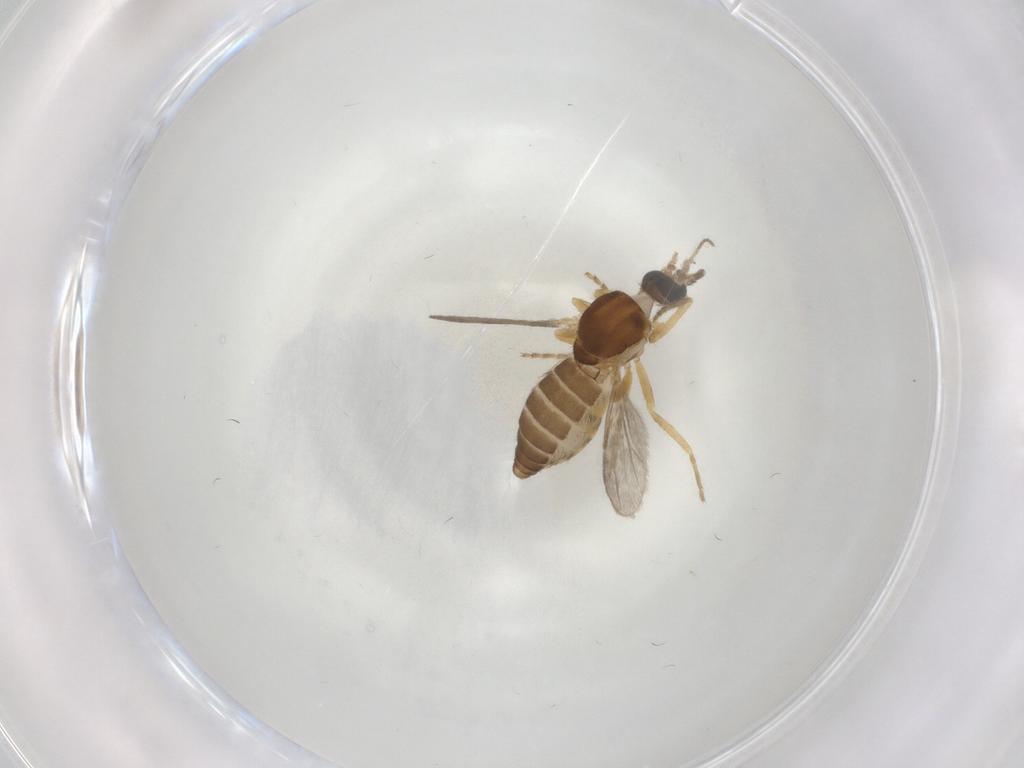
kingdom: Animalia
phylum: Arthropoda
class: Insecta
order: Diptera
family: Ceratopogonidae
